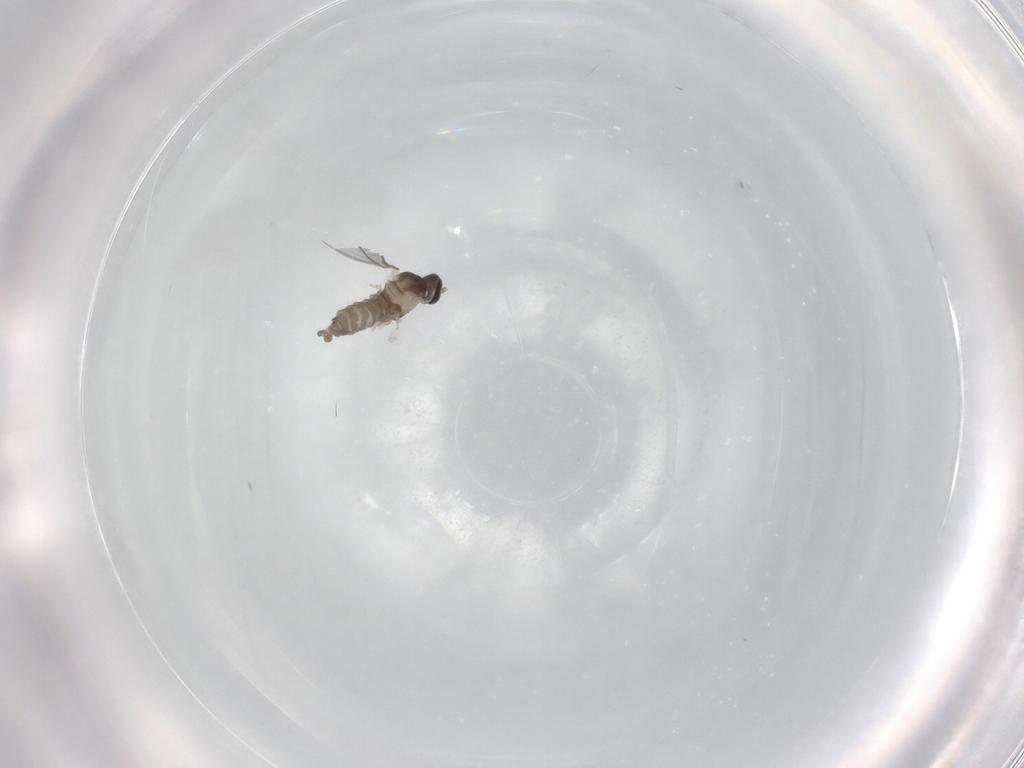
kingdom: Animalia
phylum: Arthropoda
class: Insecta
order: Diptera
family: Cecidomyiidae
